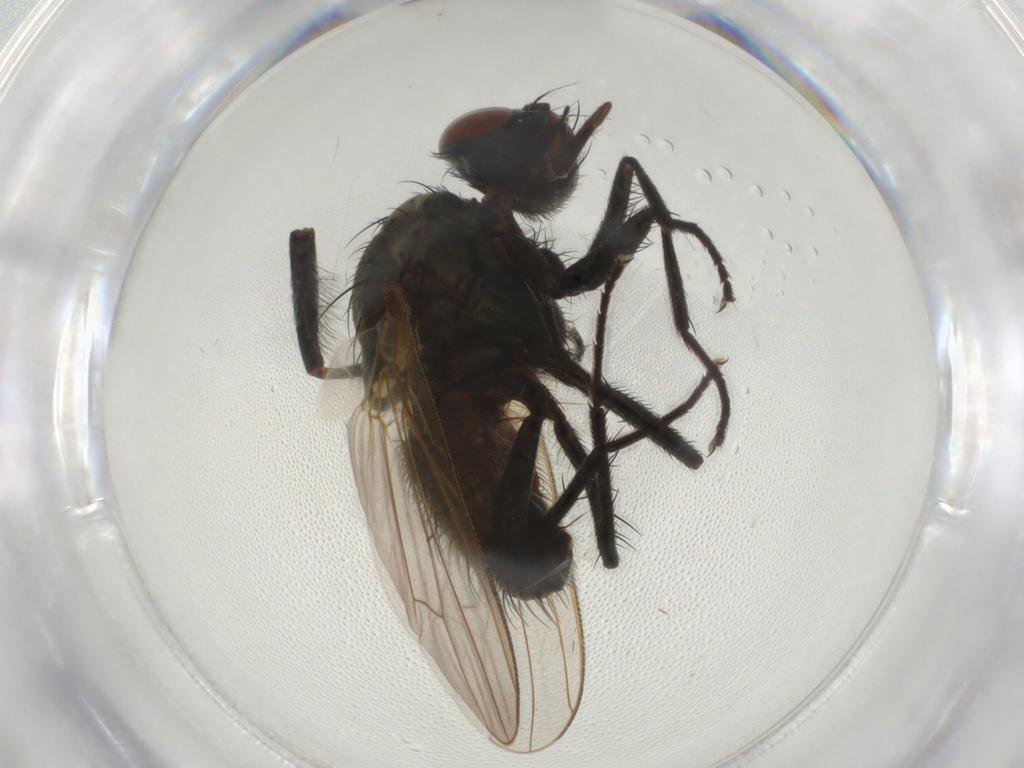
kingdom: Animalia
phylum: Arthropoda
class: Insecta
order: Diptera
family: Anthomyiidae
